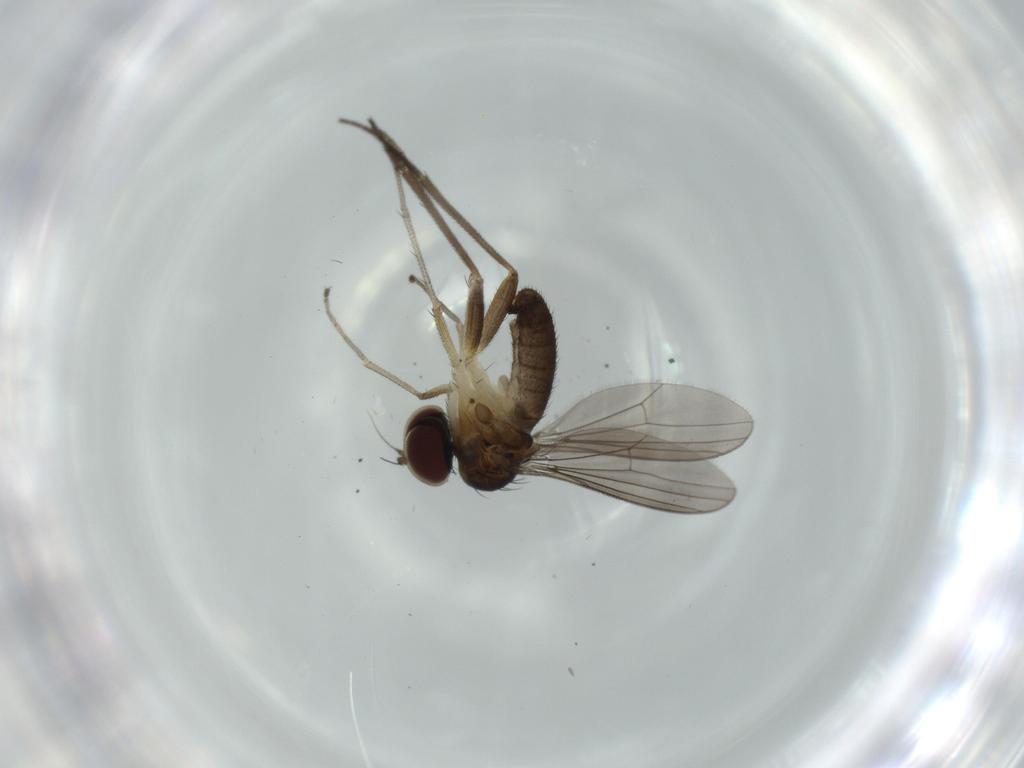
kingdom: Animalia
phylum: Arthropoda
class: Insecta
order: Diptera
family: Dolichopodidae
